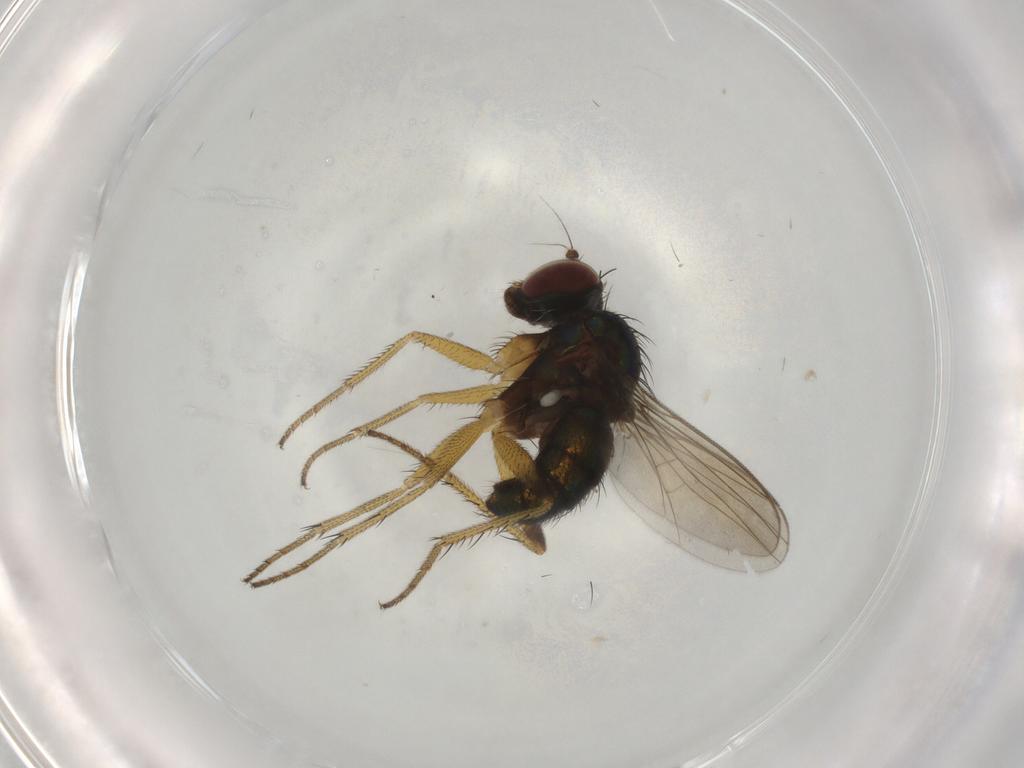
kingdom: Animalia
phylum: Arthropoda
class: Insecta
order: Diptera
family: Dolichopodidae
